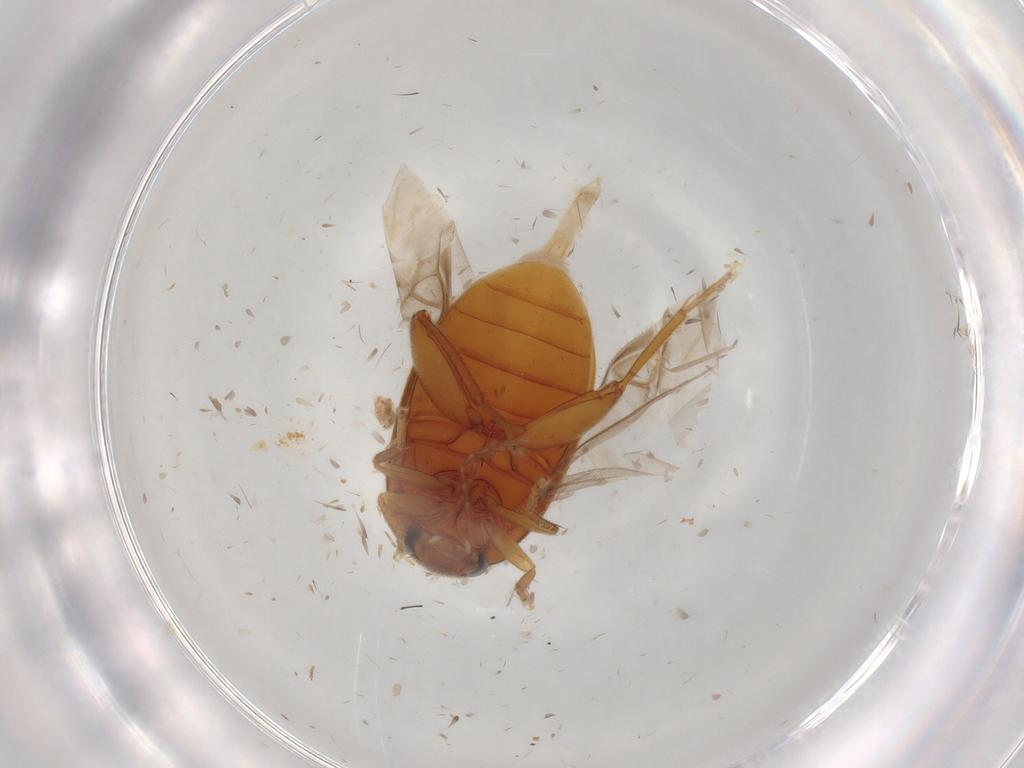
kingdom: Animalia
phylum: Arthropoda
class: Insecta
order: Coleoptera
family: Scirtidae
